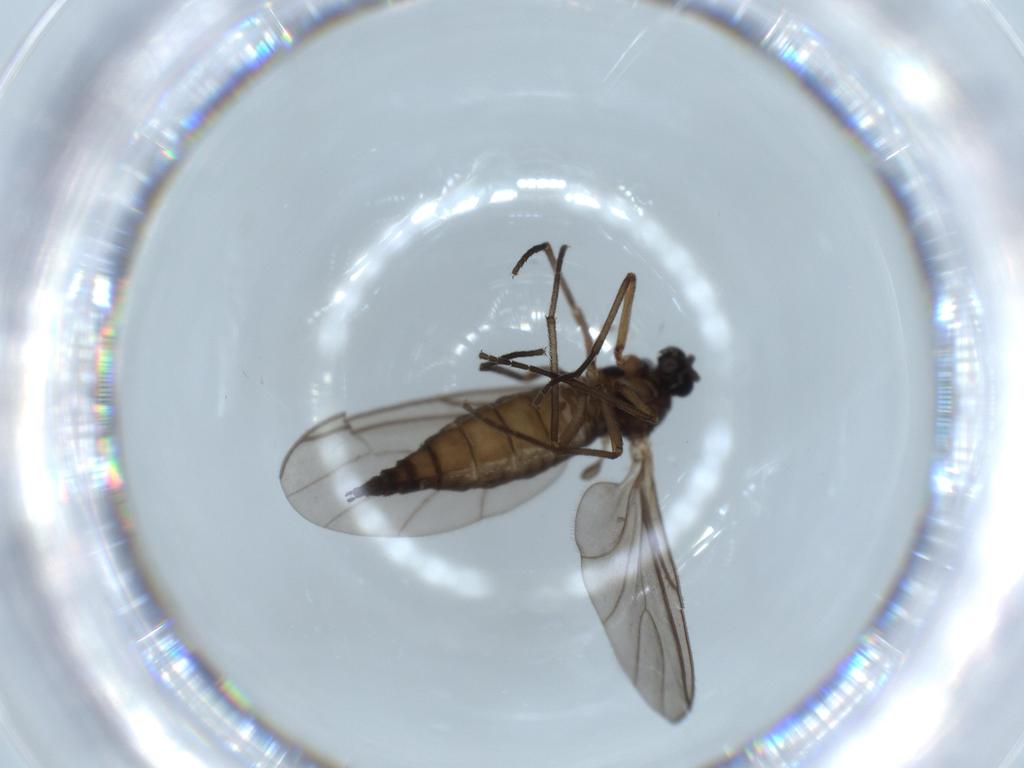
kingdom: Animalia
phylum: Arthropoda
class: Insecta
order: Diptera
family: Sciaridae
